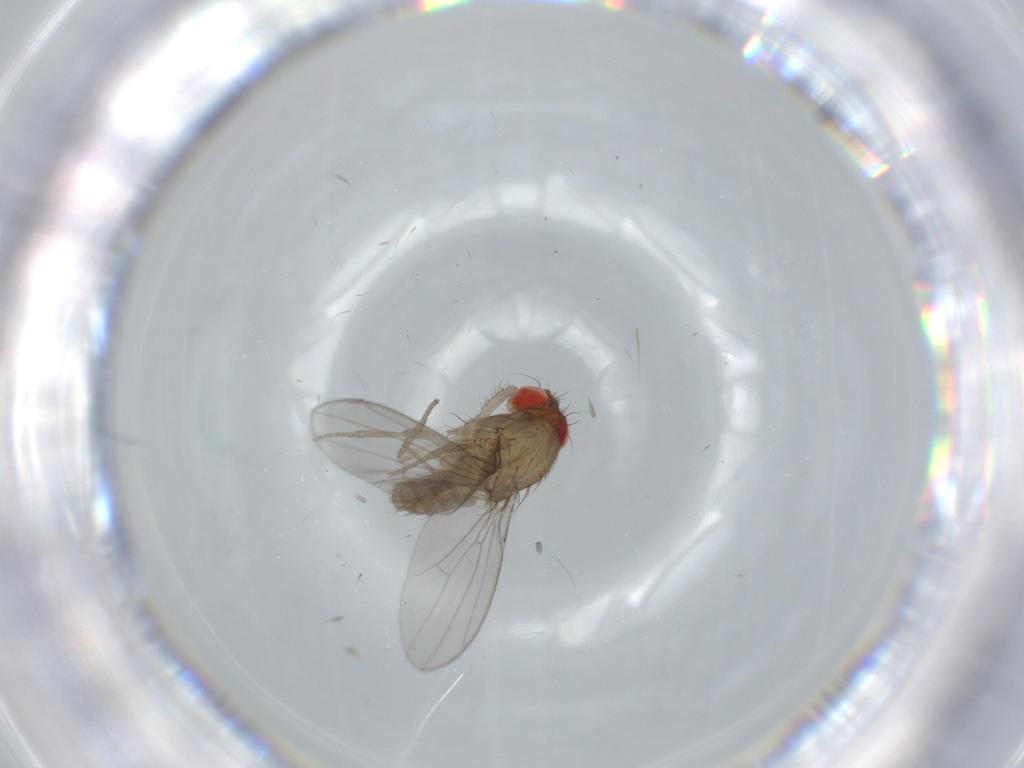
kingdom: Animalia
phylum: Arthropoda
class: Insecta
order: Diptera
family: Drosophilidae
